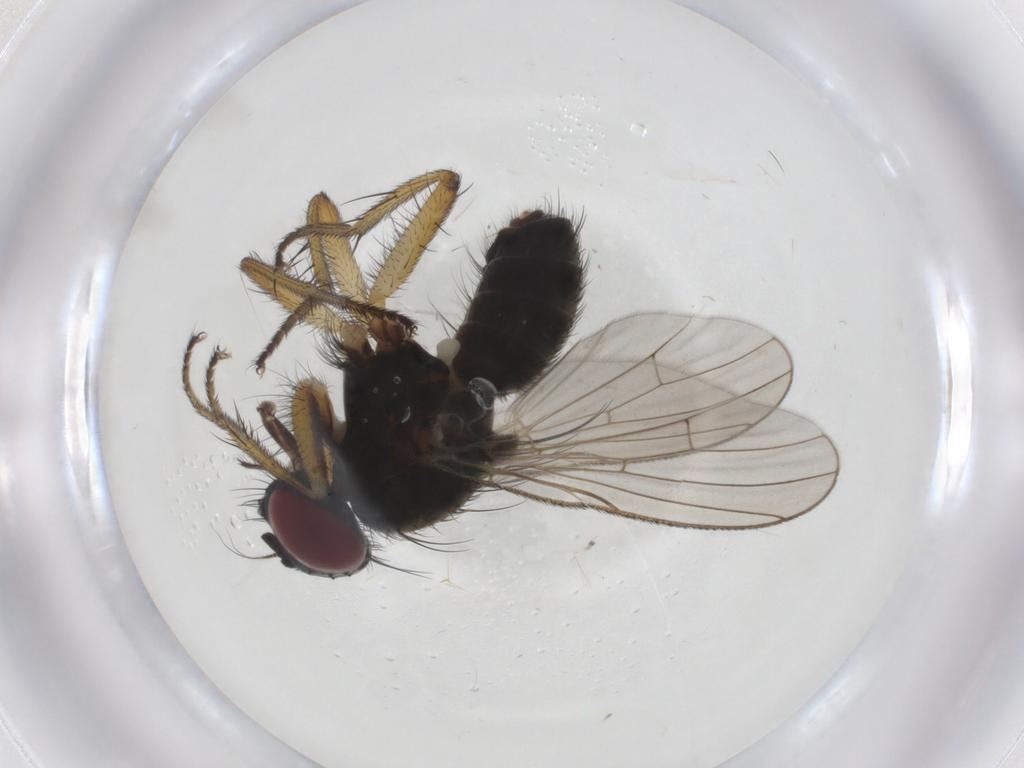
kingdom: Animalia
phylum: Arthropoda
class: Insecta
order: Diptera
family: Muscidae
